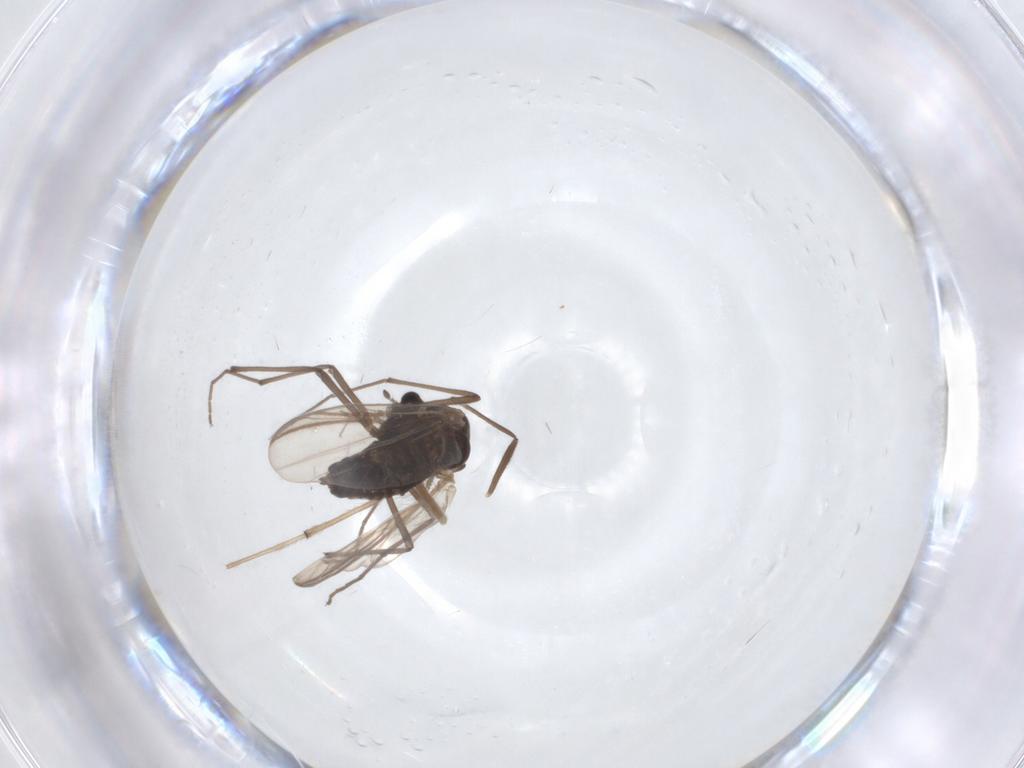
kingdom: Animalia
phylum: Arthropoda
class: Insecta
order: Diptera
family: Chironomidae
